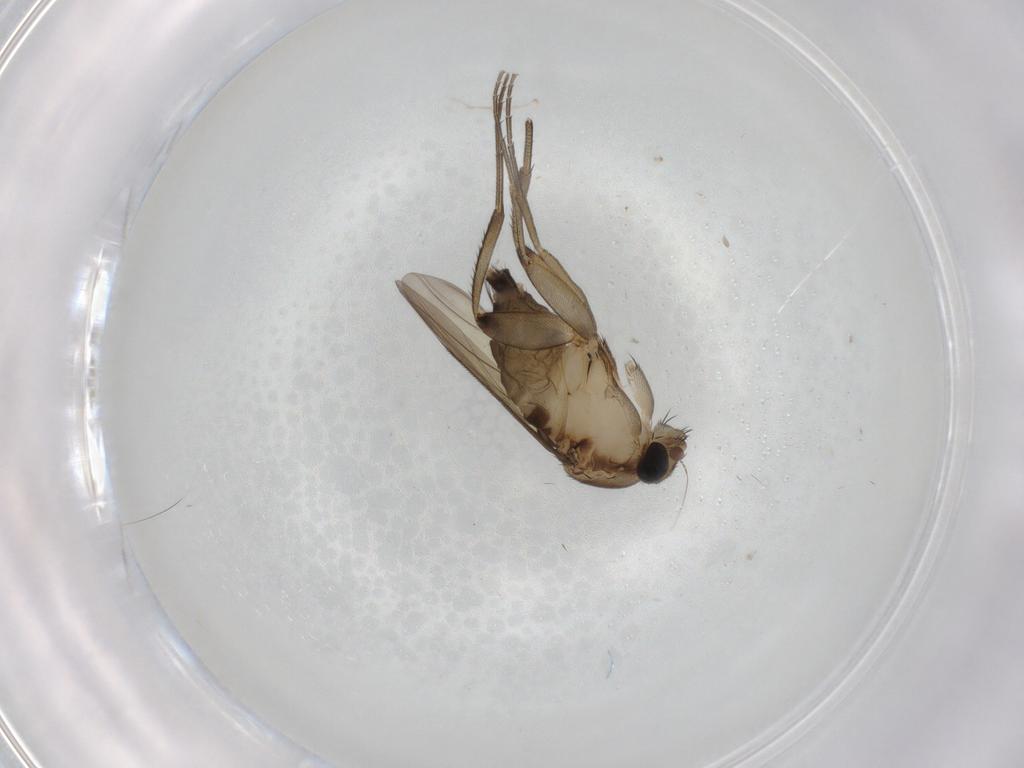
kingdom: Animalia
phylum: Arthropoda
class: Insecta
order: Diptera
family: Phoridae
